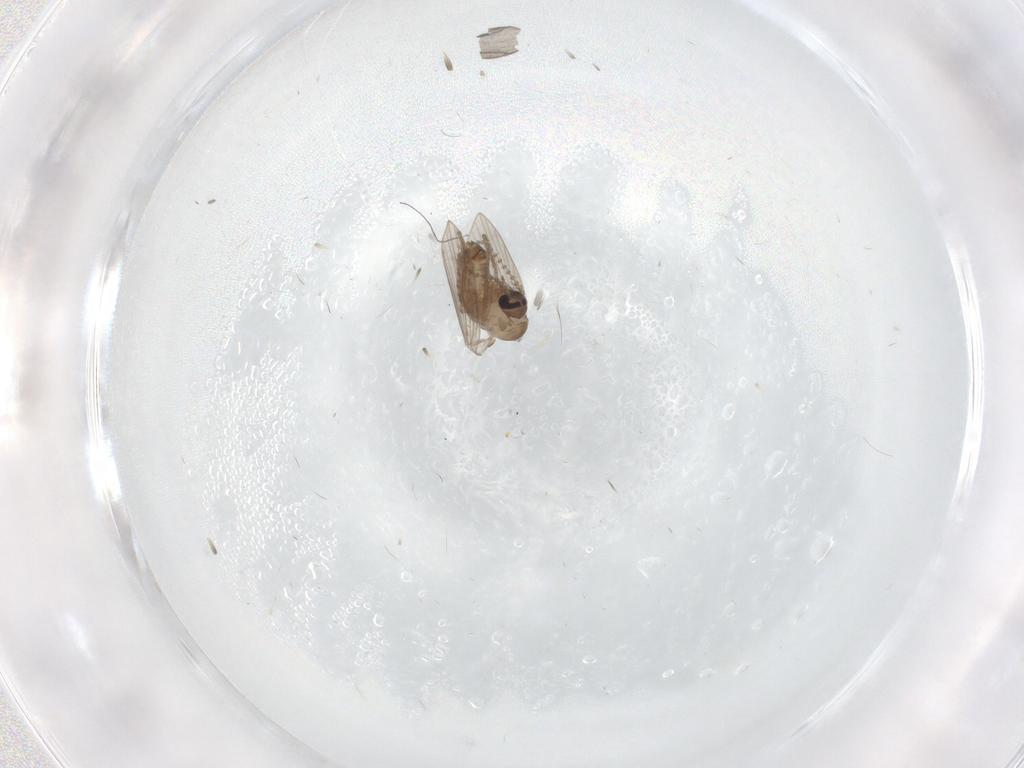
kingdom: Animalia
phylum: Arthropoda
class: Insecta
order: Diptera
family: Psychodidae
